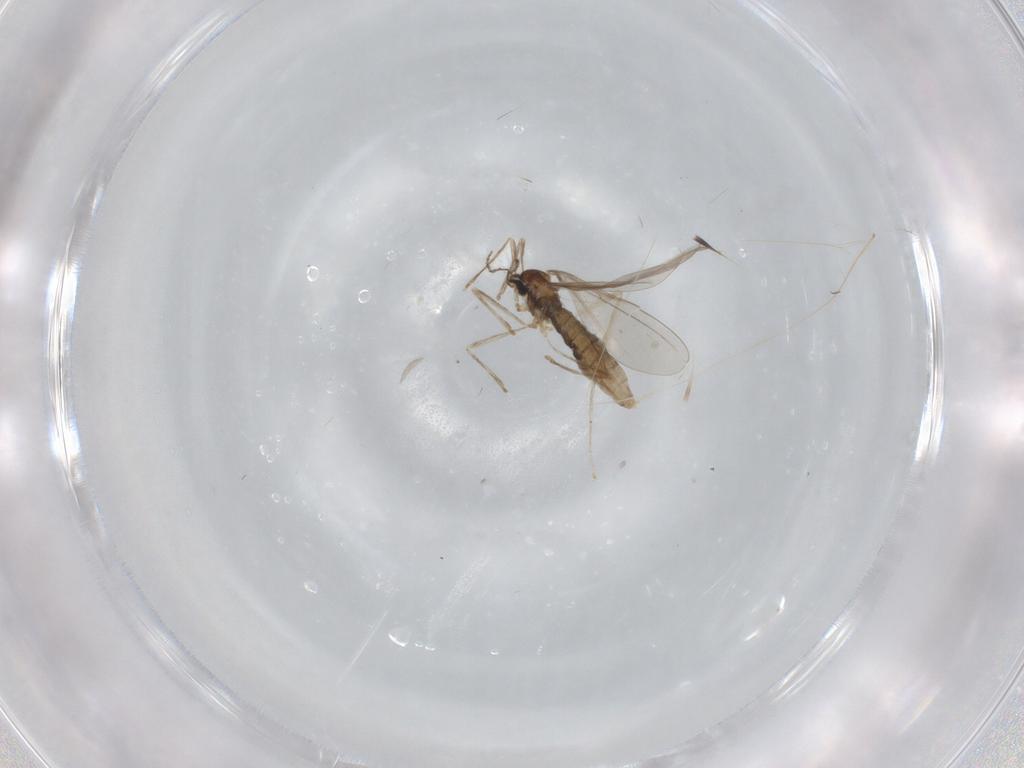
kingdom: Animalia
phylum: Arthropoda
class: Insecta
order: Diptera
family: Cecidomyiidae
